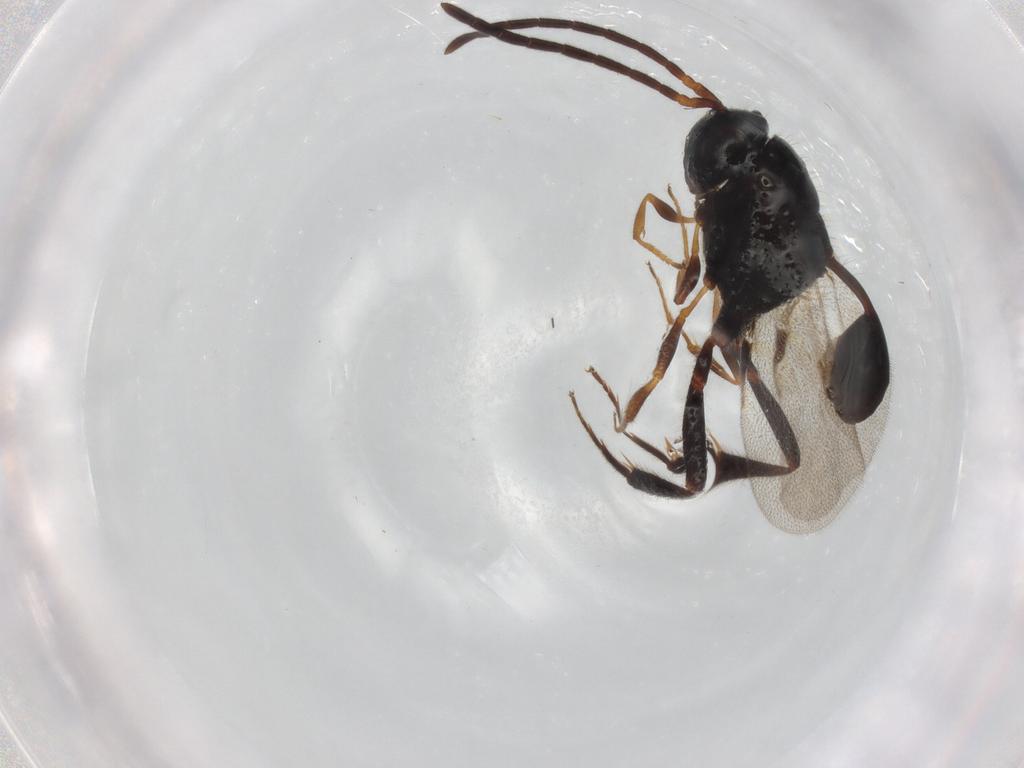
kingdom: Animalia
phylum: Arthropoda
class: Insecta
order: Hymenoptera
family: Evaniidae
